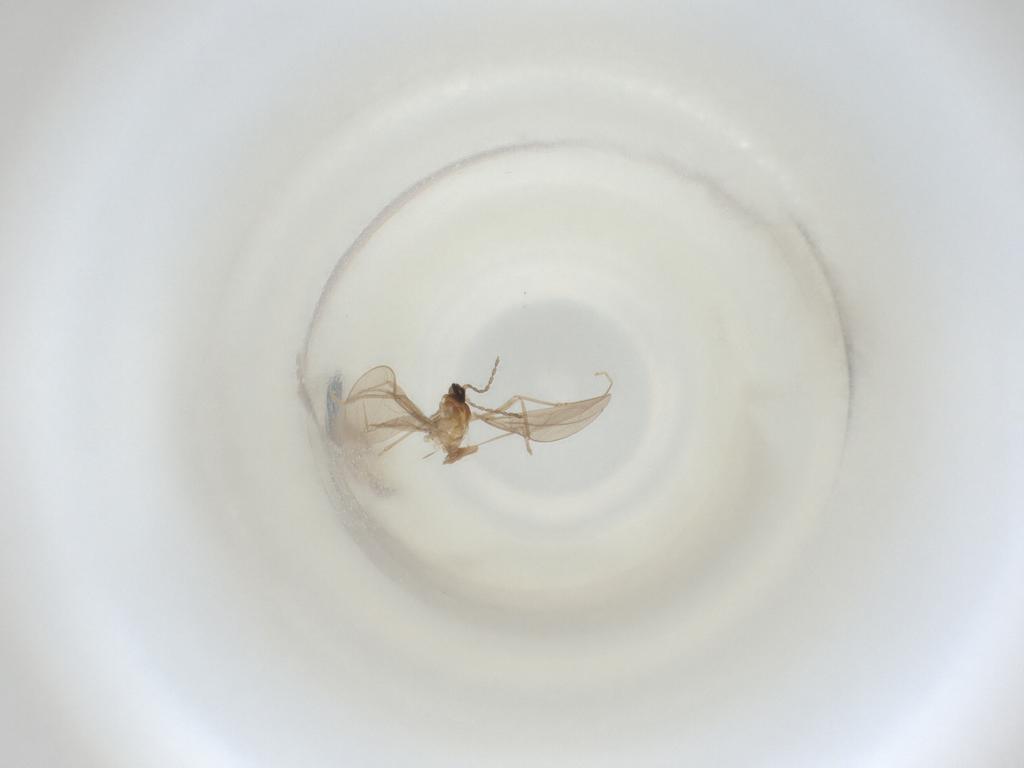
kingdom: Animalia
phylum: Arthropoda
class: Insecta
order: Diptera
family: Cecidomyiidae
